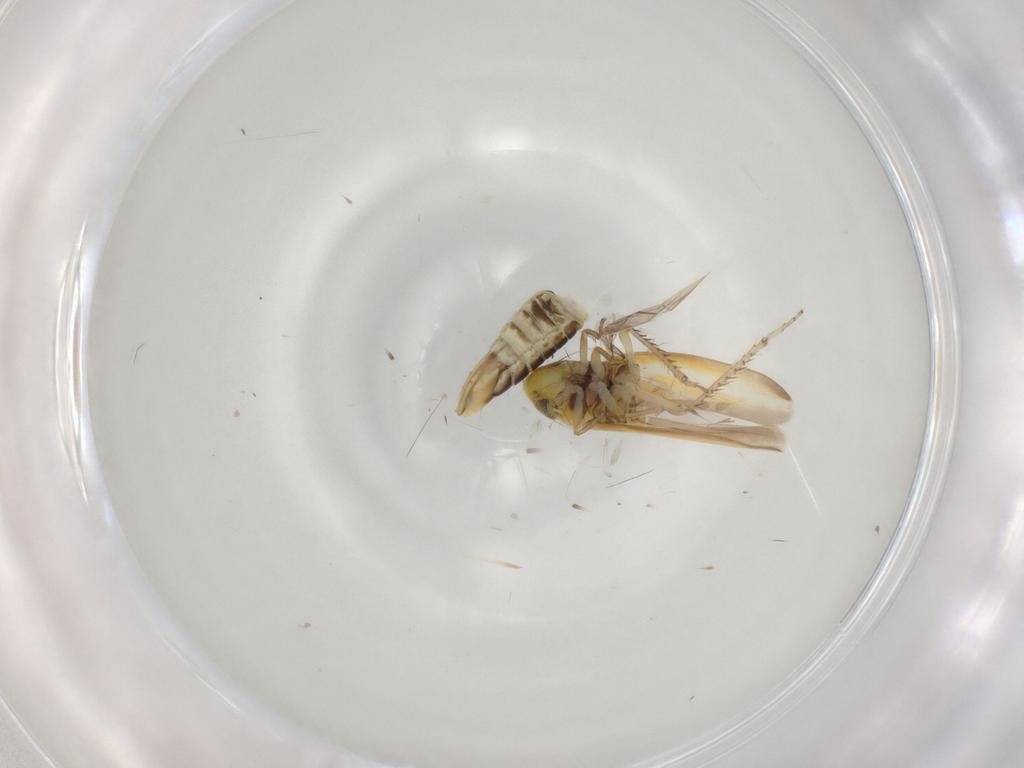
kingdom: Animalia
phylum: Arthropoda
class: Insecta
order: Hemiptera
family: Cicadellidae
